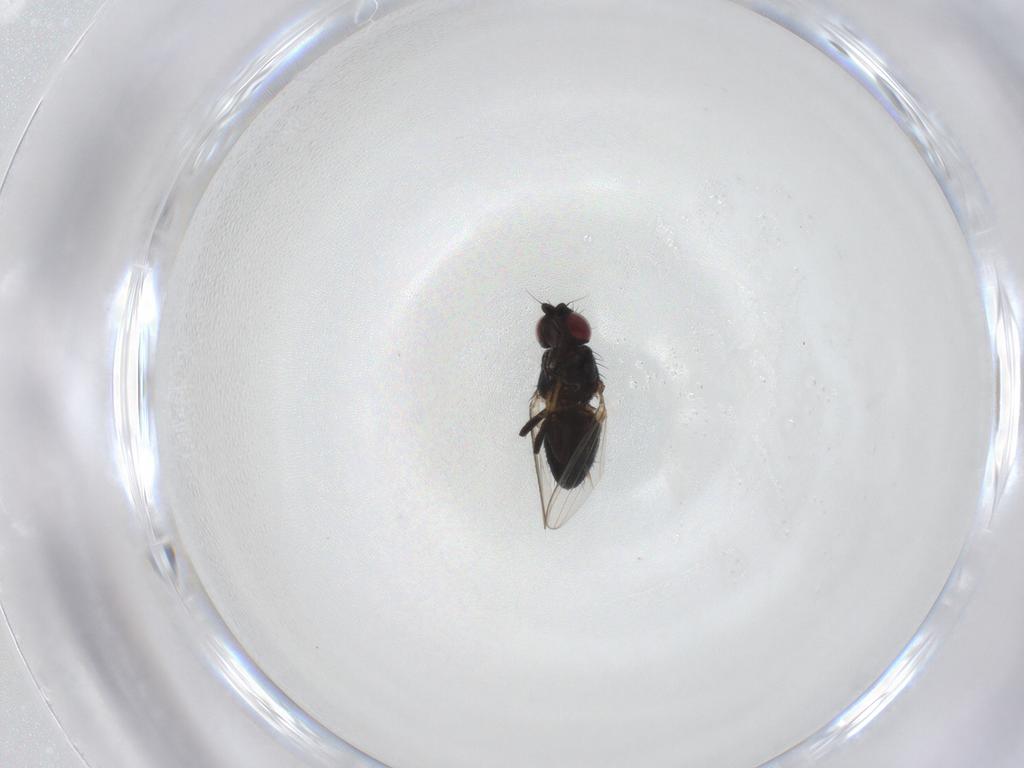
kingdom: Animalia
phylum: Arthropoda
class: Insecta
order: Diptera
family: Milichiidae
